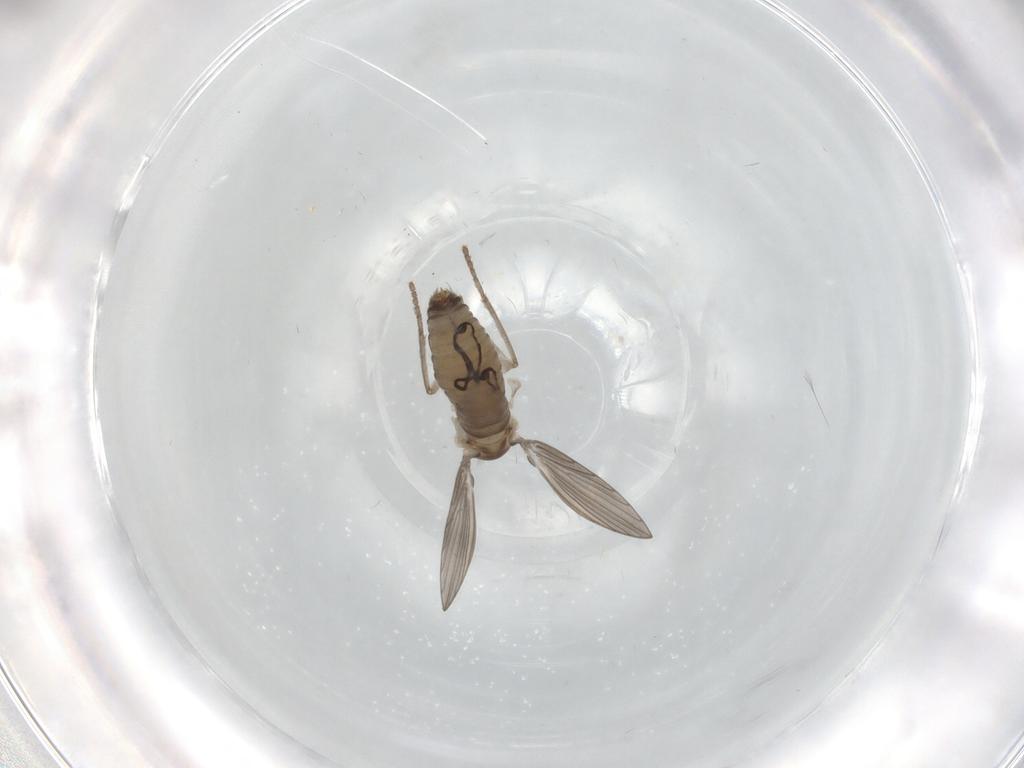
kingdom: Animalia
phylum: Arthropoda
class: Insecta
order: Diptera
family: Psychodidae
